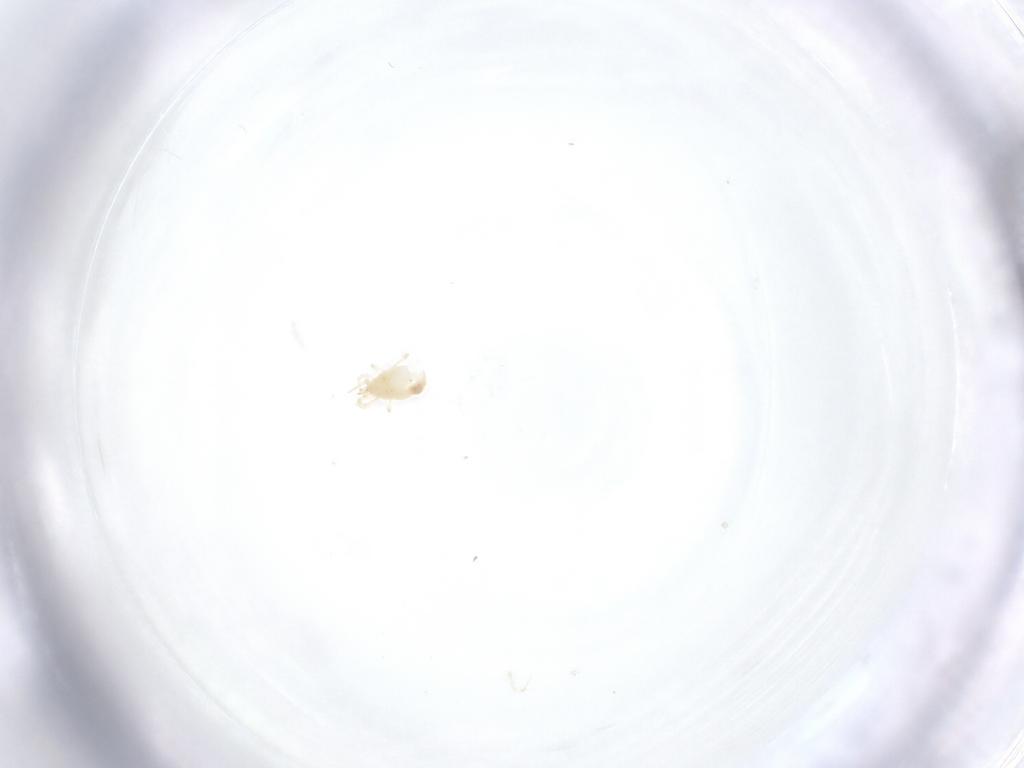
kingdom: Animalia
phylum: Arthropoda
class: Arachnida
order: Mesostigmata
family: Phytoseiidae
